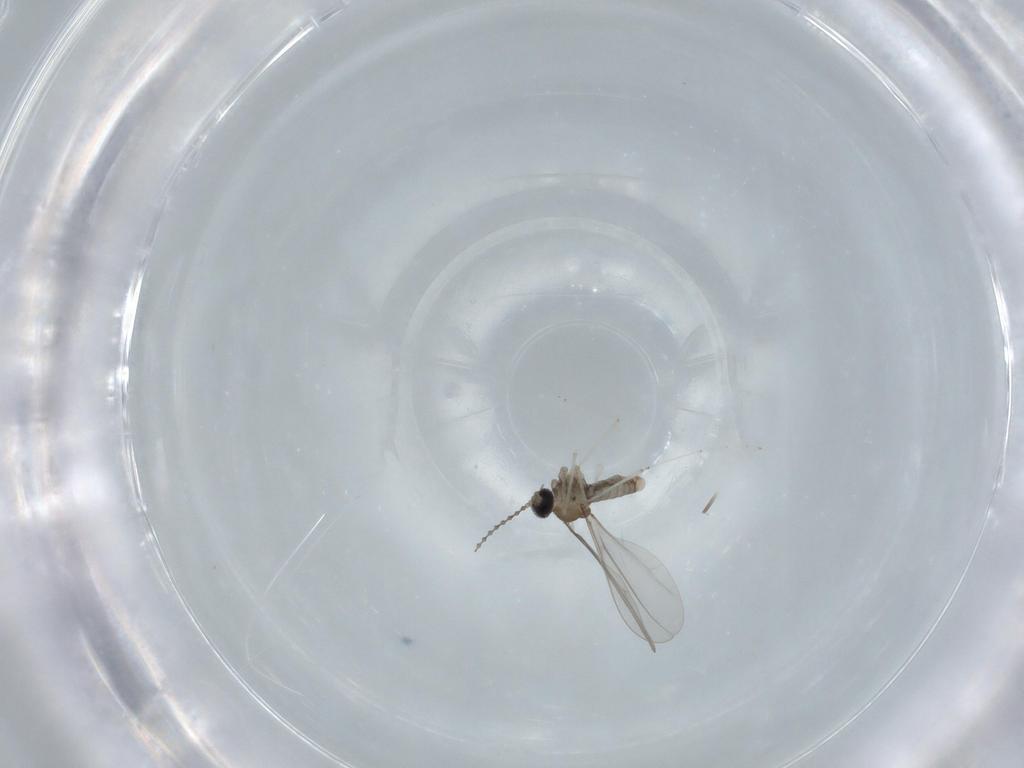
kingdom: Animalia
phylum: Arthropoda
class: Insecta
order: Diptera
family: Cecidomyiidae
